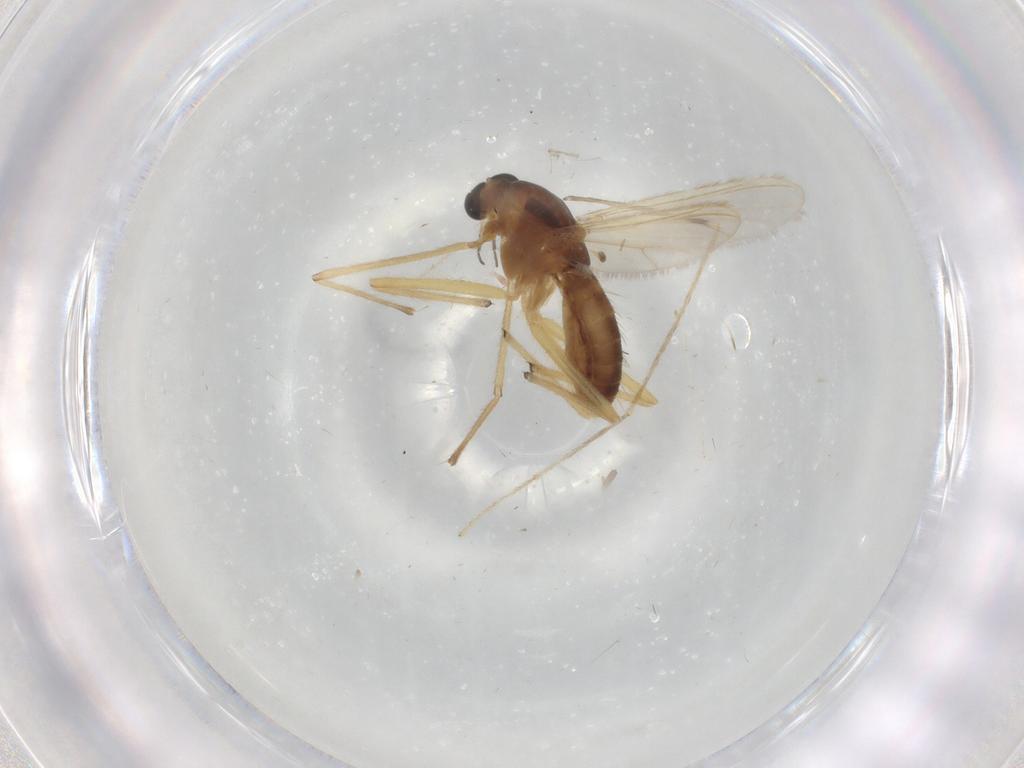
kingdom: Animalia
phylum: Arthropoda
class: Insecta
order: Diptera
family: Chironomidae
